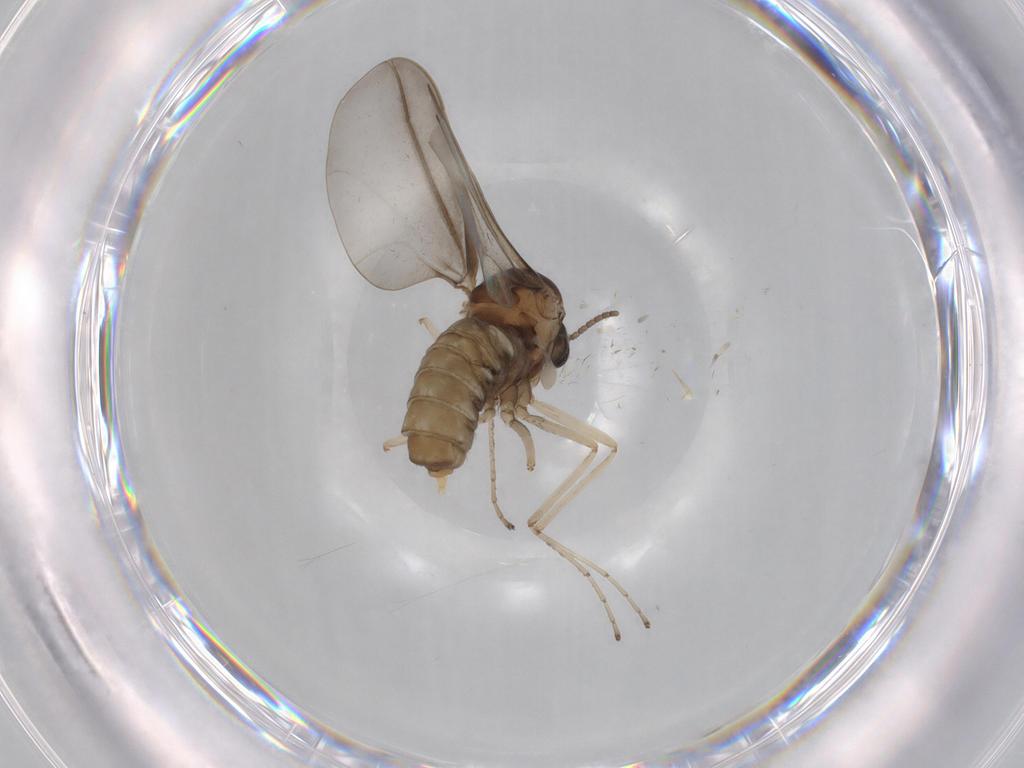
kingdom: Animalia
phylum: Arthropoda
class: Insecta
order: Diptera
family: Cecidomyiidae
